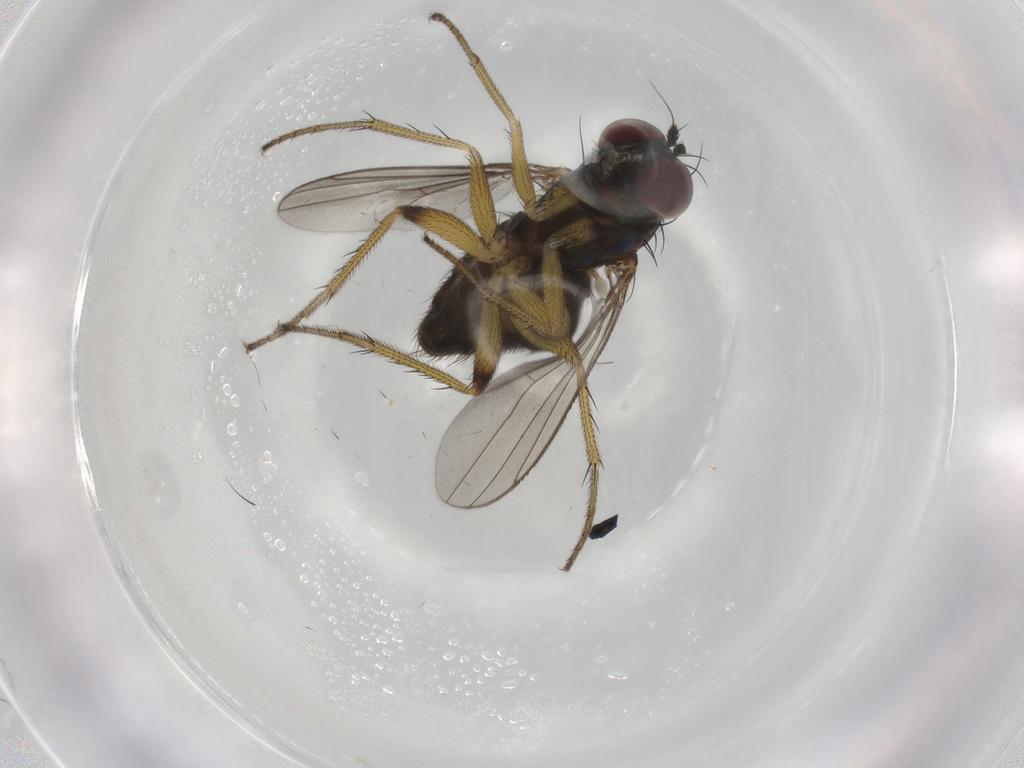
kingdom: Animalia
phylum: Arthropoda
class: Insecta
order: Diptera
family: Dolichopodidae
